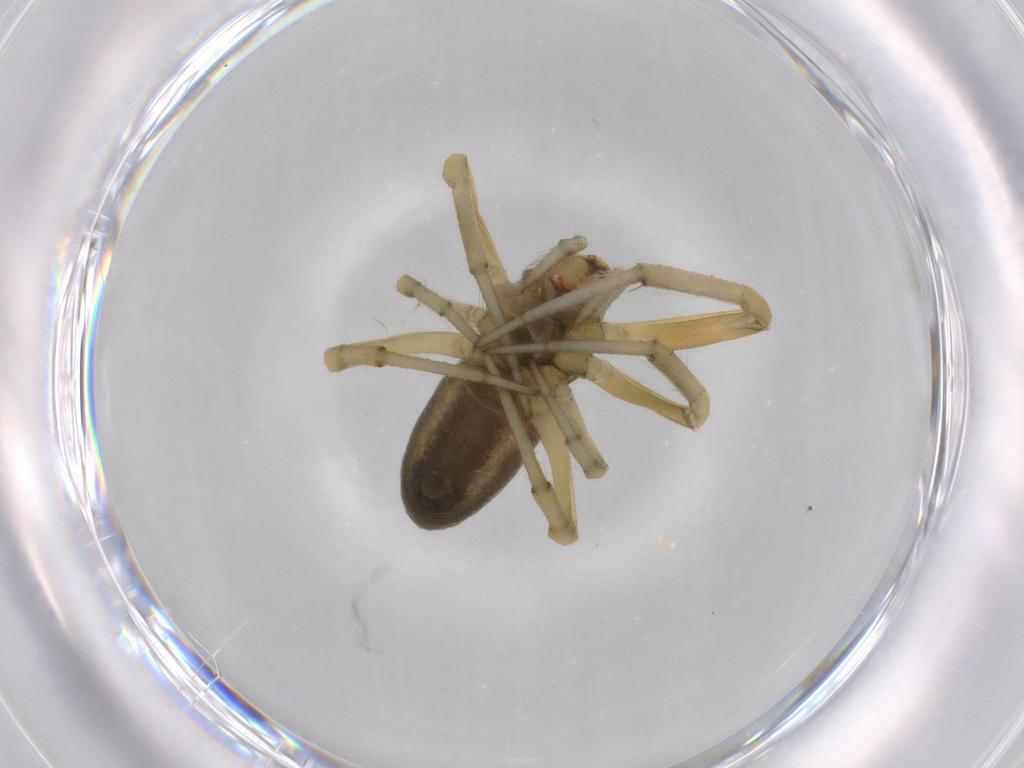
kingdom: Animalia
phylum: Arthropoda
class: Arachnida
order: Araneae
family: Araneidae
